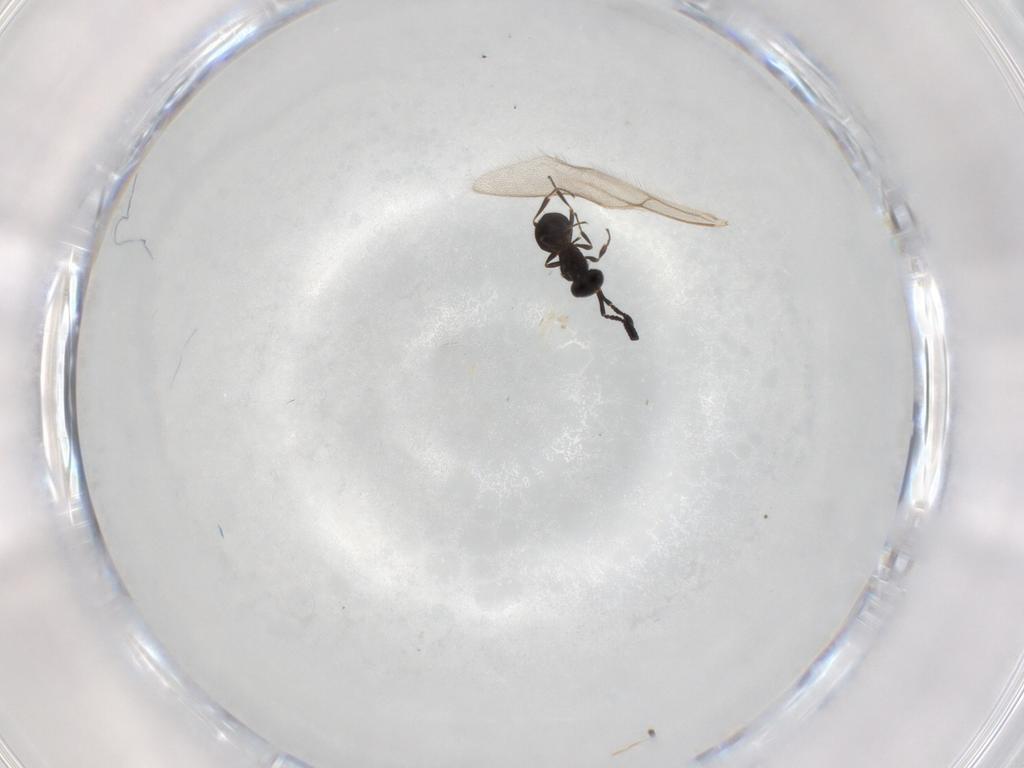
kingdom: Animalia
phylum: Arthropoda
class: Insecta
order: Hymenoptera
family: Scelionidae
